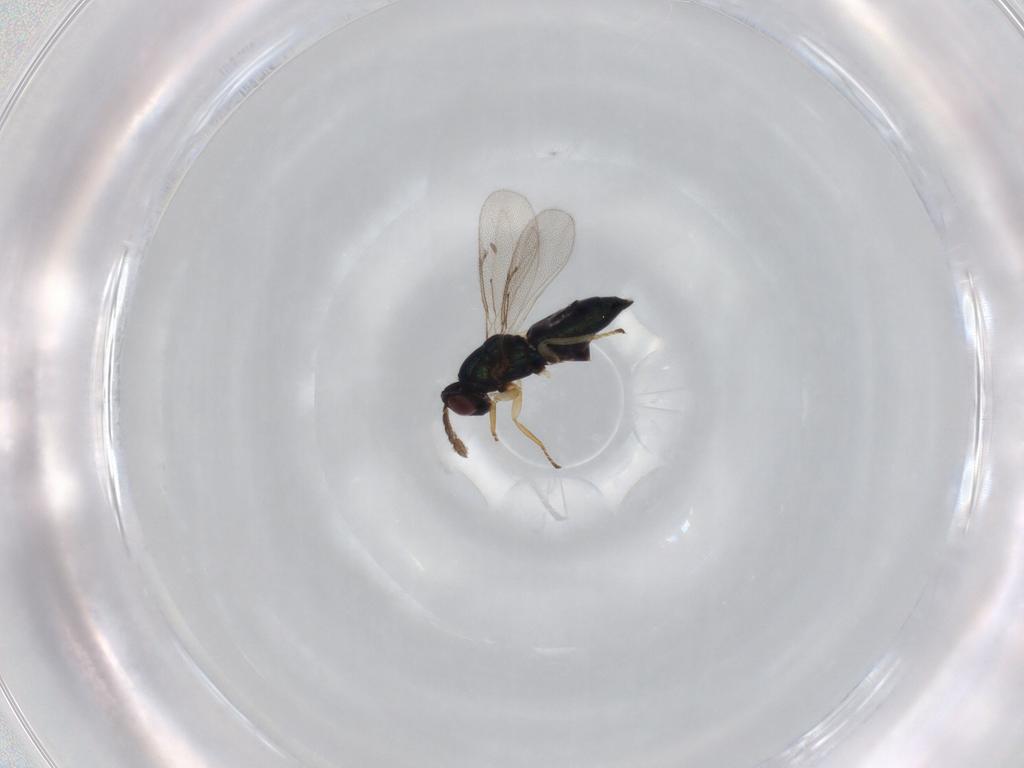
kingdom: Animalia
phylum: Arthropoda
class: Insecta
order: Hymenoptera
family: Eulophidae
